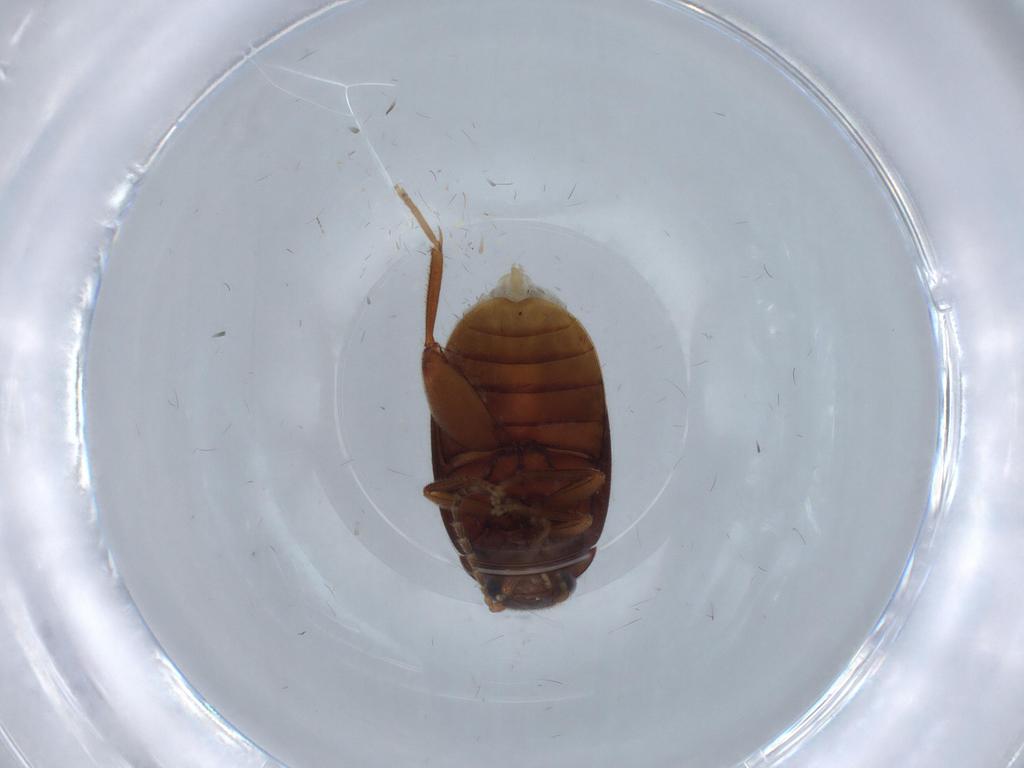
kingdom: Animalia
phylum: Arthropoda
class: Insecta
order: Coleoptera
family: Scirtidae
